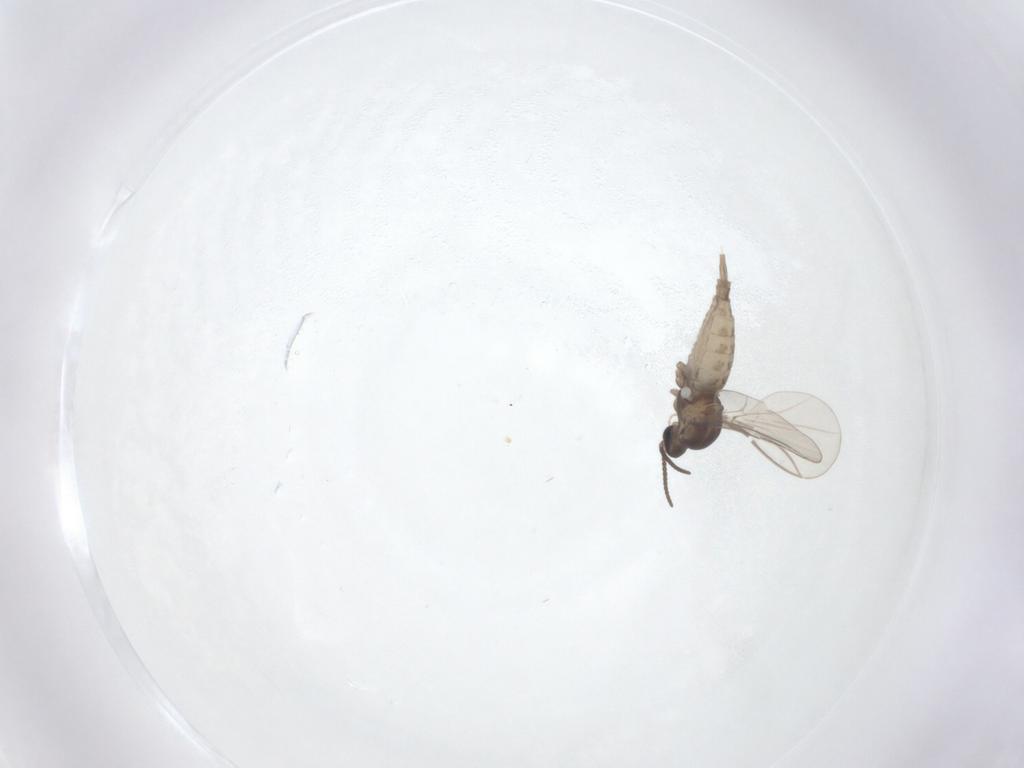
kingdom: Animalia
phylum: Arthropoda
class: Insecta
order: Diptera
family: Cecidomyiidae
